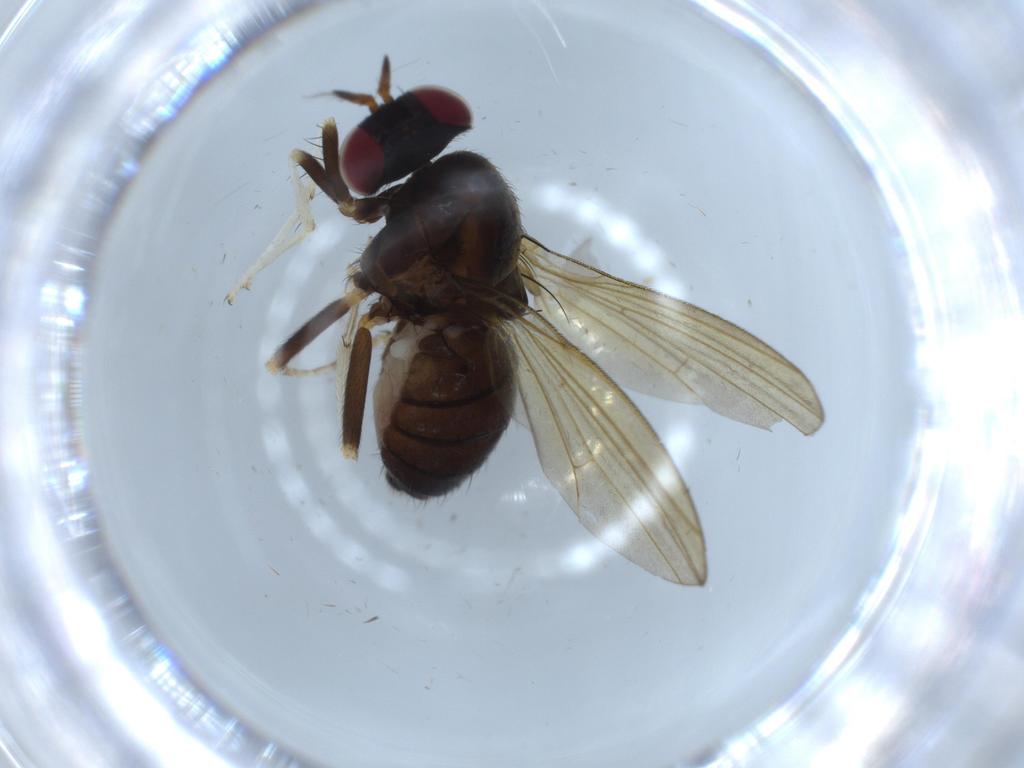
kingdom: Animalia
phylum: Arthropoda
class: Insecta
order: Diptera
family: Lauxaniidae
